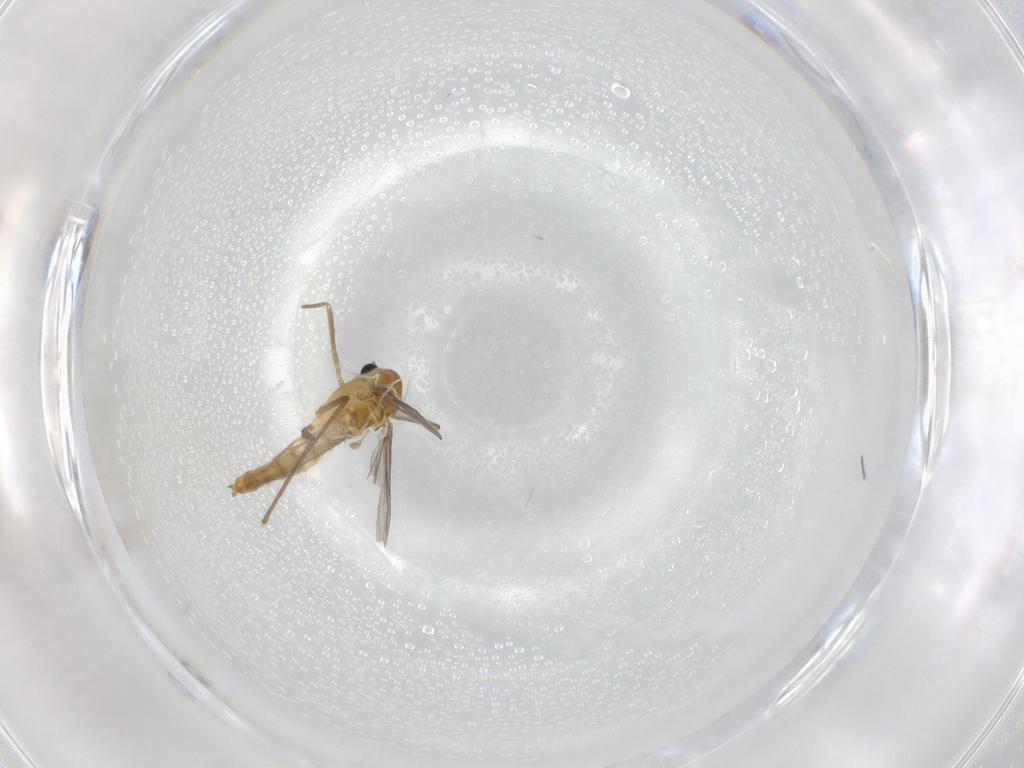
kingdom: Animalia
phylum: Arthropoda
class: Insecta
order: Diptera
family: Chironomidae
